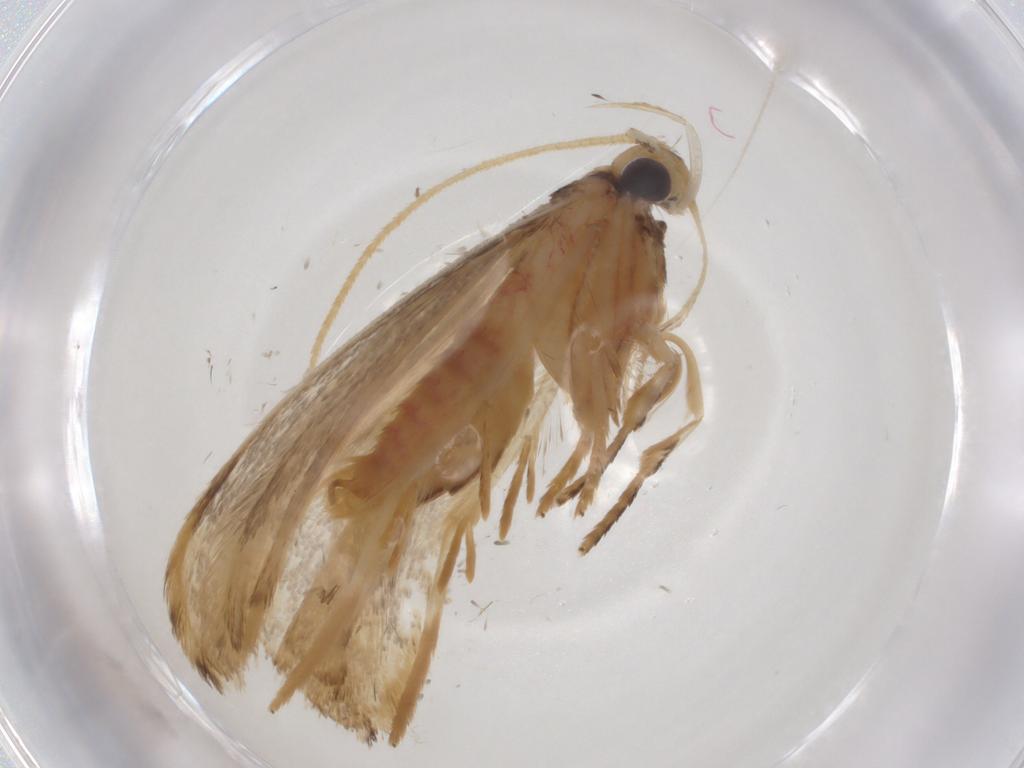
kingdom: Animalia
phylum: Arthropoda
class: Insecta
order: Lepidoptera
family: Lecithoceridae
